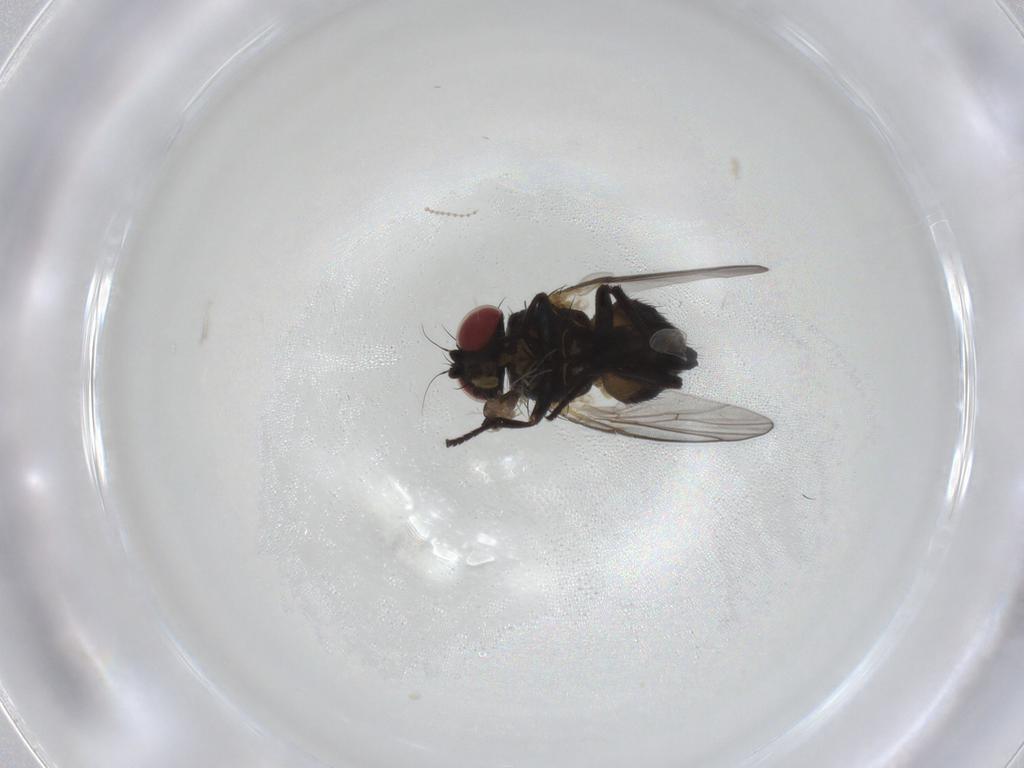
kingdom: Animalia
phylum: Arthropoda
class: Insecta
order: Diptera
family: Agromyzidae
